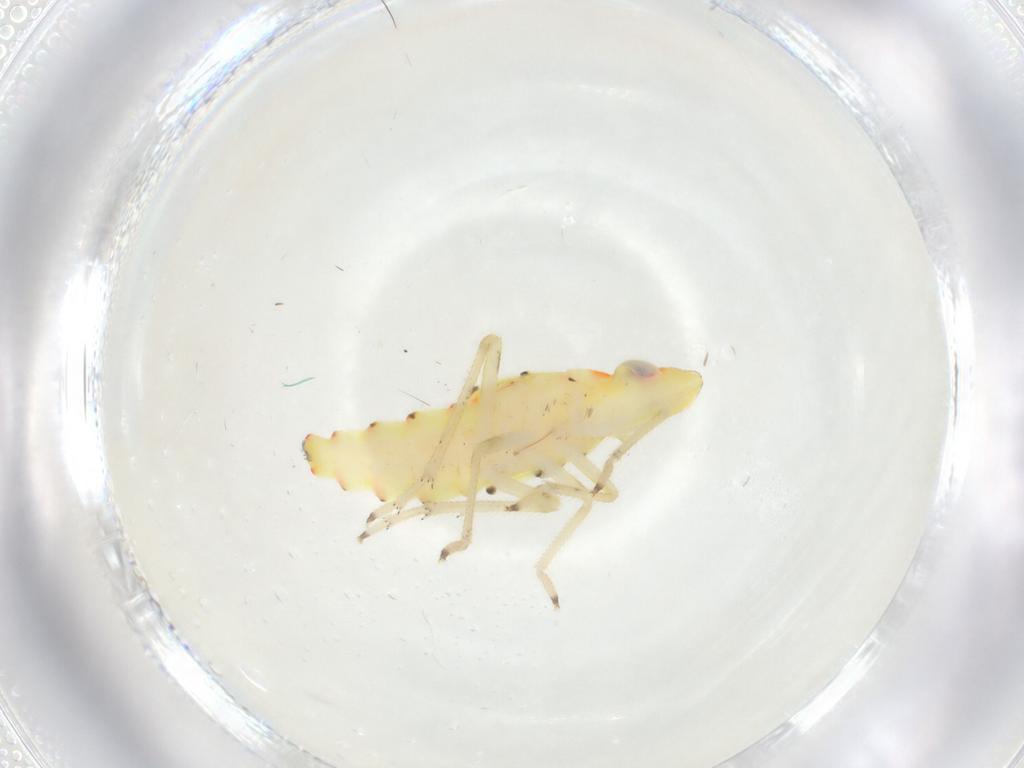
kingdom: Animalia
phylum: Arthropoda
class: Insecta
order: Hemiptera
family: Tropiduchidae
